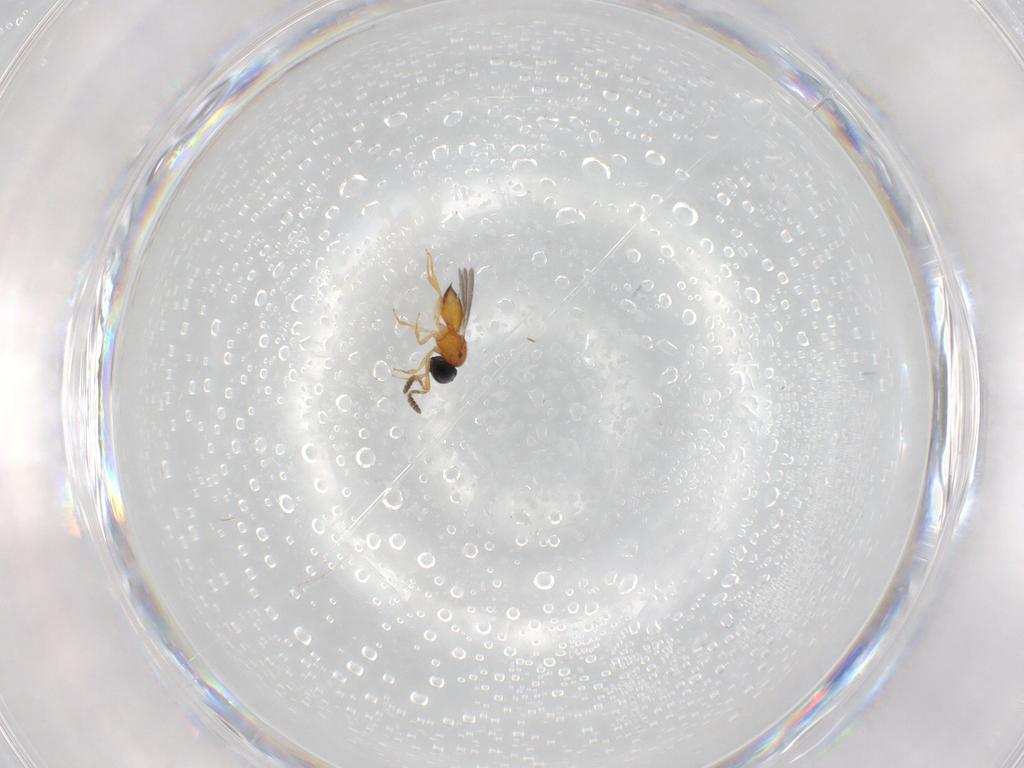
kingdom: Animalia
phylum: Arthropoda
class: Insecta
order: Hymenoptera
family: Scelionidae
